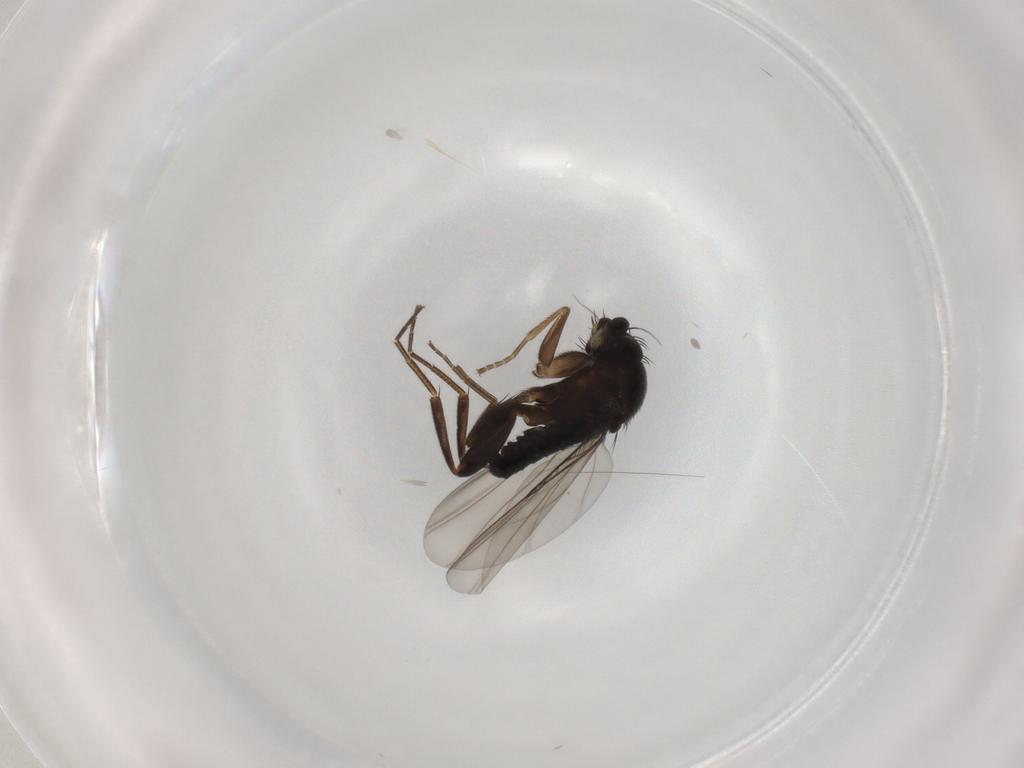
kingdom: Animalia
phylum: Arthropoda
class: Insecta
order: Diptera
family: Phoridae
